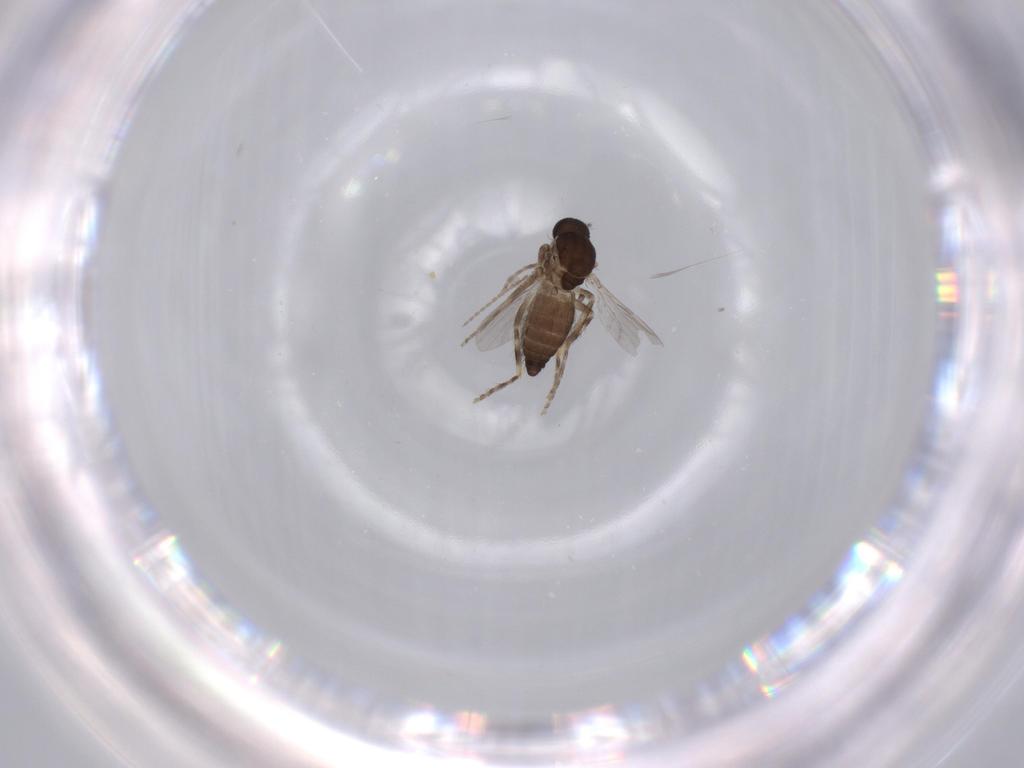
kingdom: Animalia
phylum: Arthropoda
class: Insecta
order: Diptera
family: Ceratopogonidae
